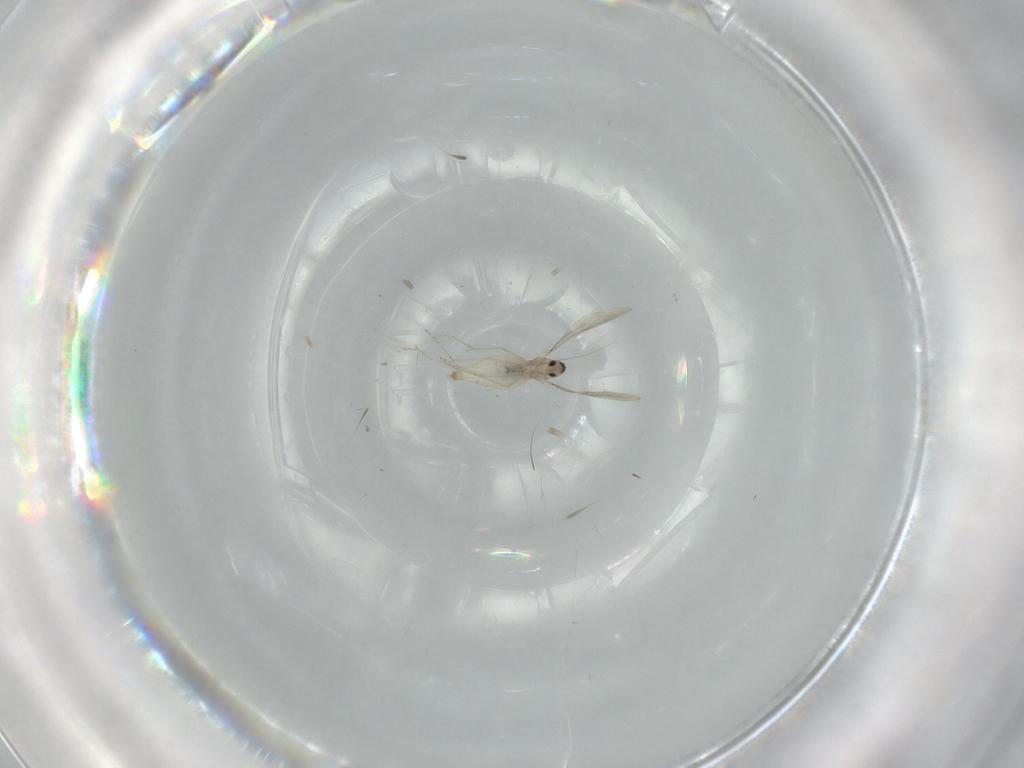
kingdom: Animalia
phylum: Arthropoda
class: Insecta
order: Diptera
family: Cecidomyiidae
